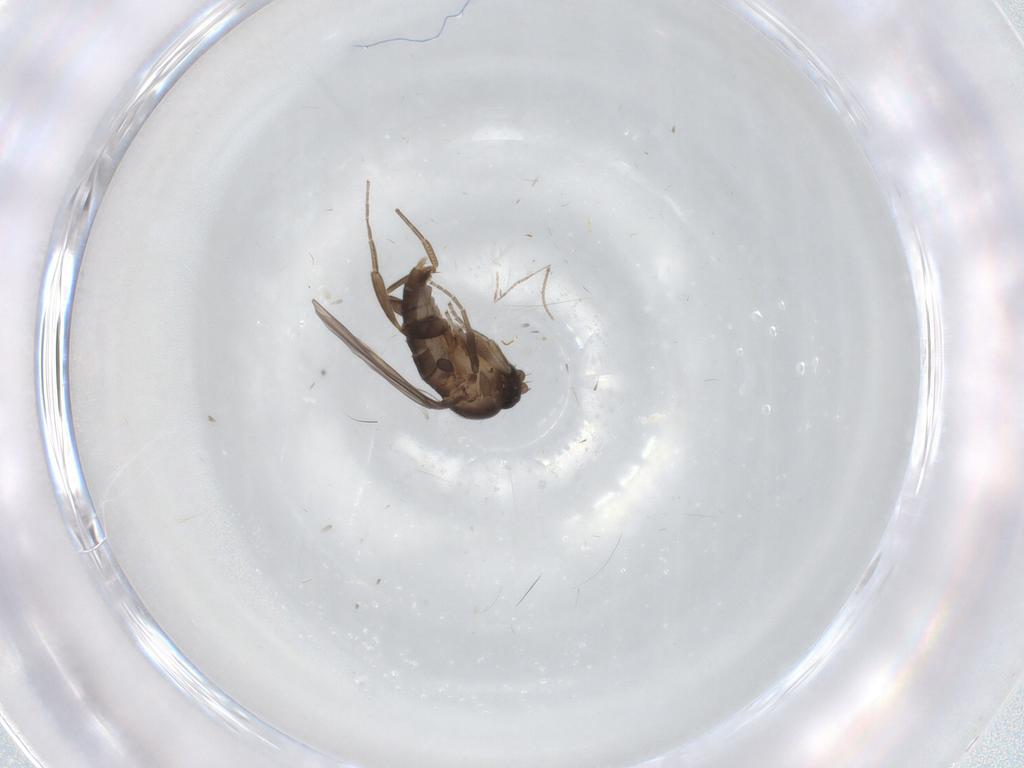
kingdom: Animalia
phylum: Arthropoda
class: Insecta
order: Diptera
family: Phoridae
